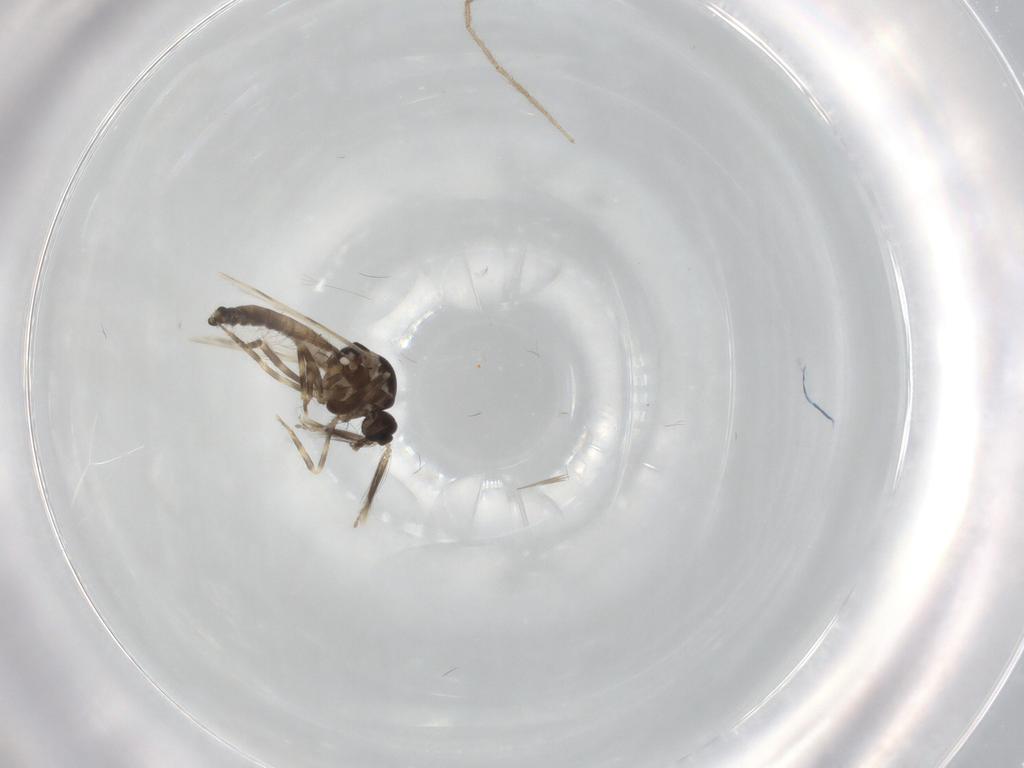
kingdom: Animalia
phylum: Arthropoda
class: Insecta
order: Diptera
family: Ceratopogonidae
